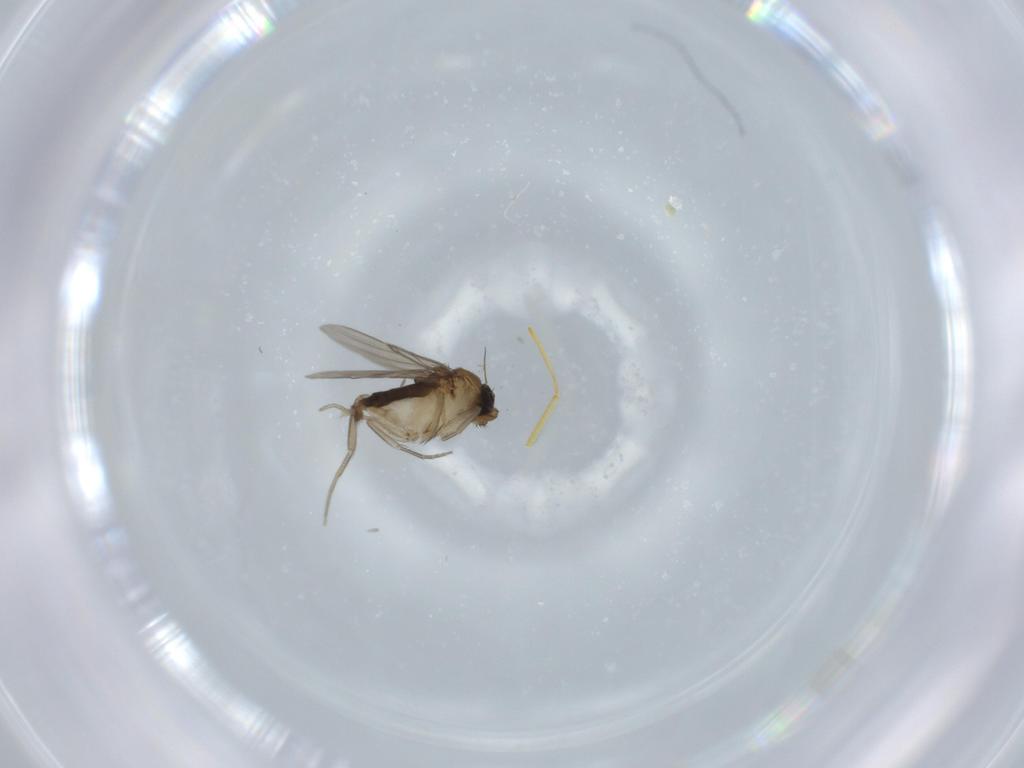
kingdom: Animalia
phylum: Arthropoda
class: Insecta
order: Diptera
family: Phoridae
